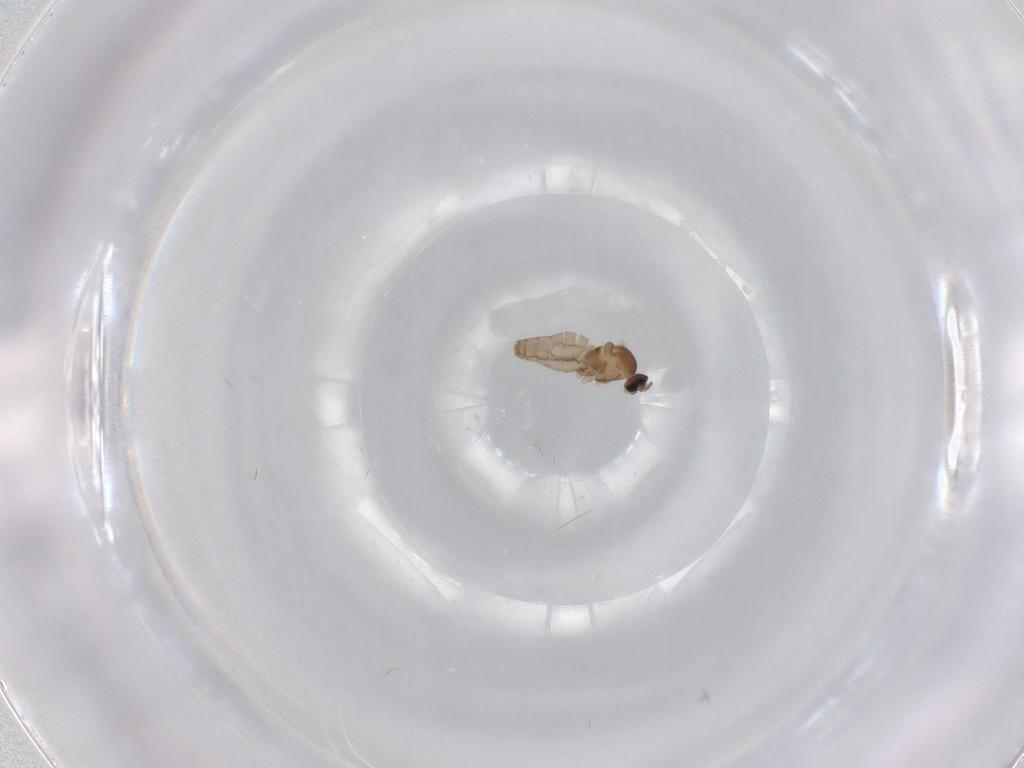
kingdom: Animalia
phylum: Arthropoda
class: Insecta
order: Diptera
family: Cecidomyiidae
